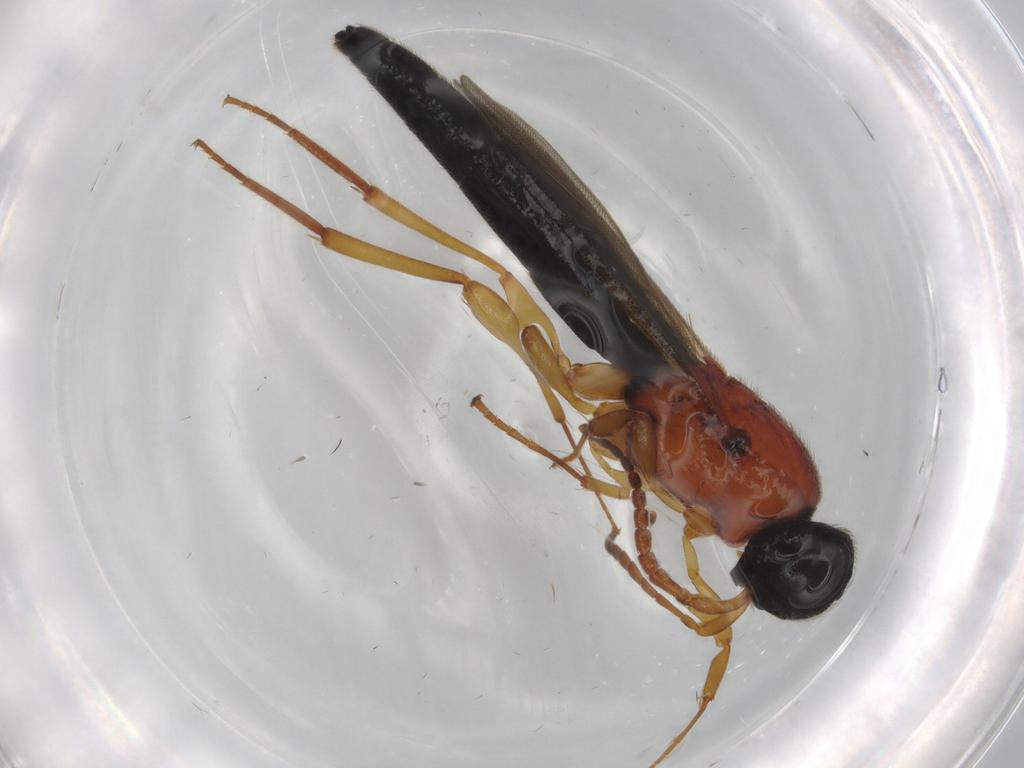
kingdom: Animalia
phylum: Arthropoda
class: Insecta
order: Hymenoptera
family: Scelionidae
